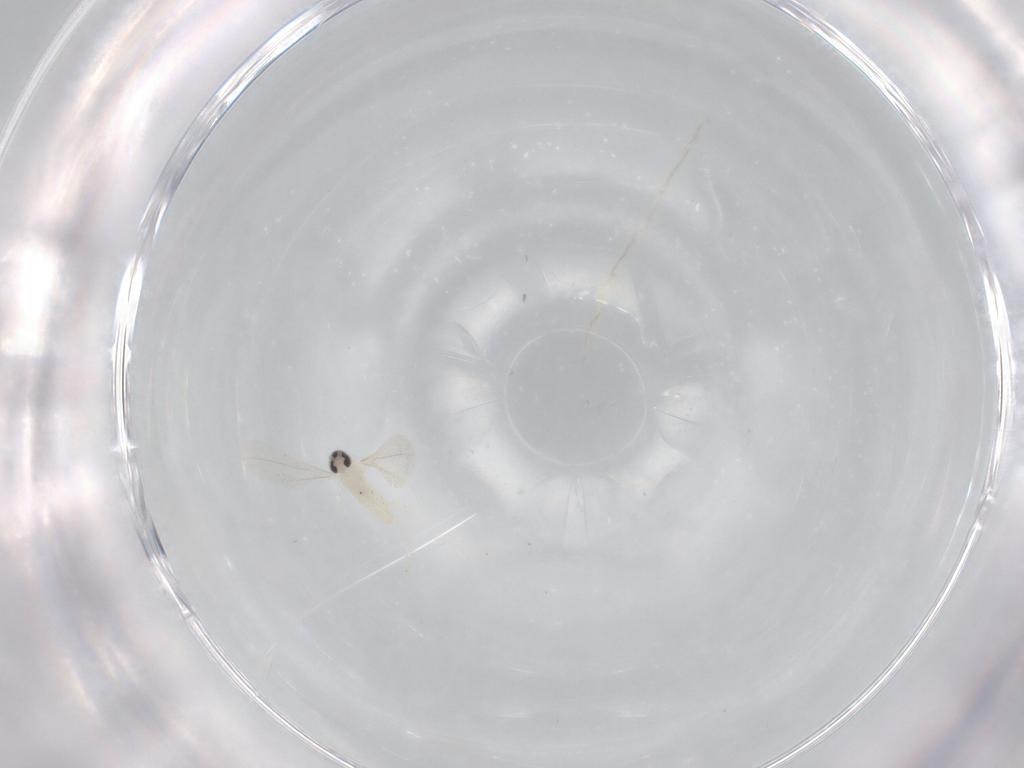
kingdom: Animalia
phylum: Arthropoda
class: Insecta
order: Diptera
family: Cecidomyiidae
